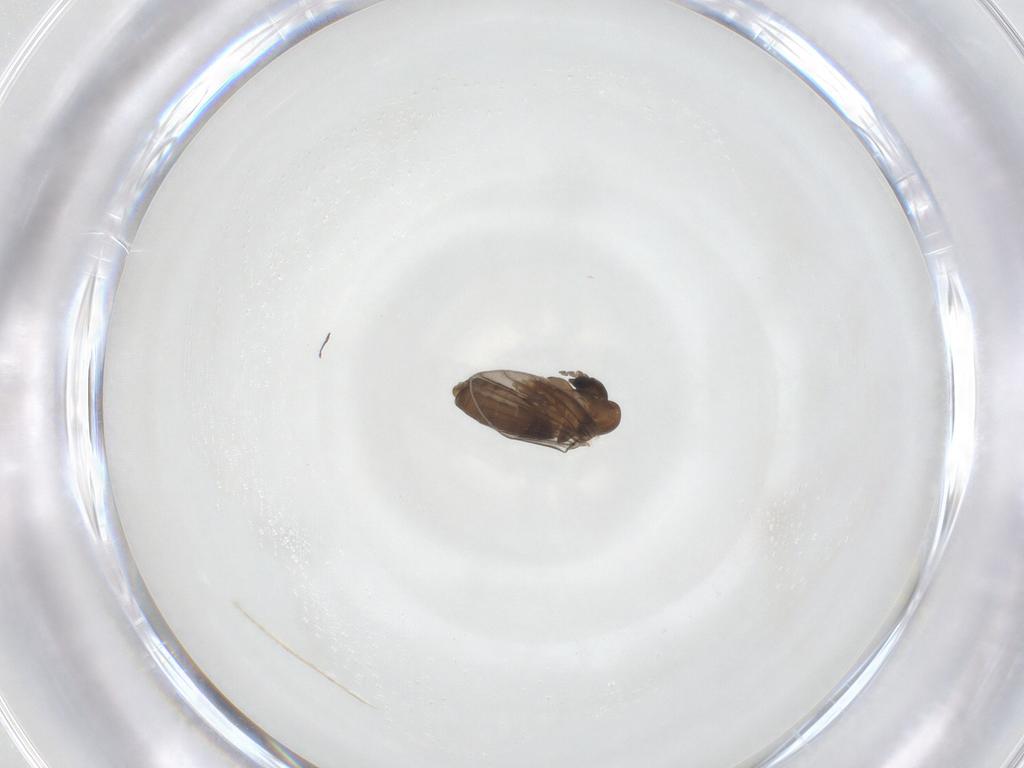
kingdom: Animalia
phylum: Arthropoda
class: Insecta
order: Diptera
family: Psychodidae
